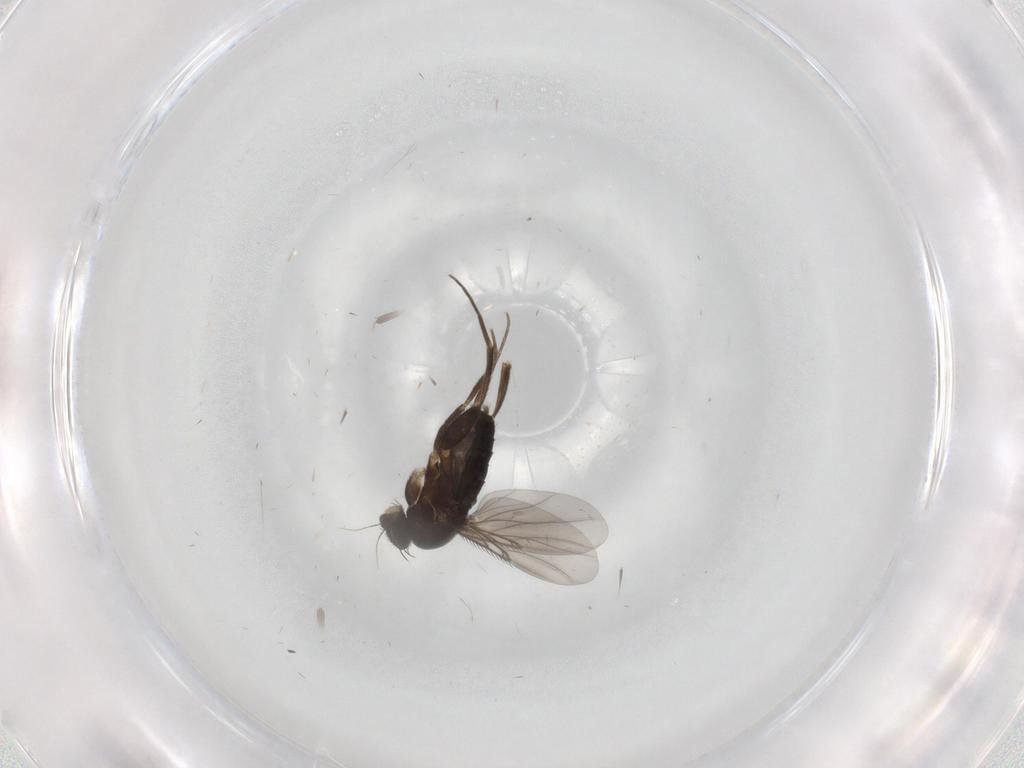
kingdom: Animalia
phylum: Arthropoda
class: Insecta
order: Diptera
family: Phoridae
